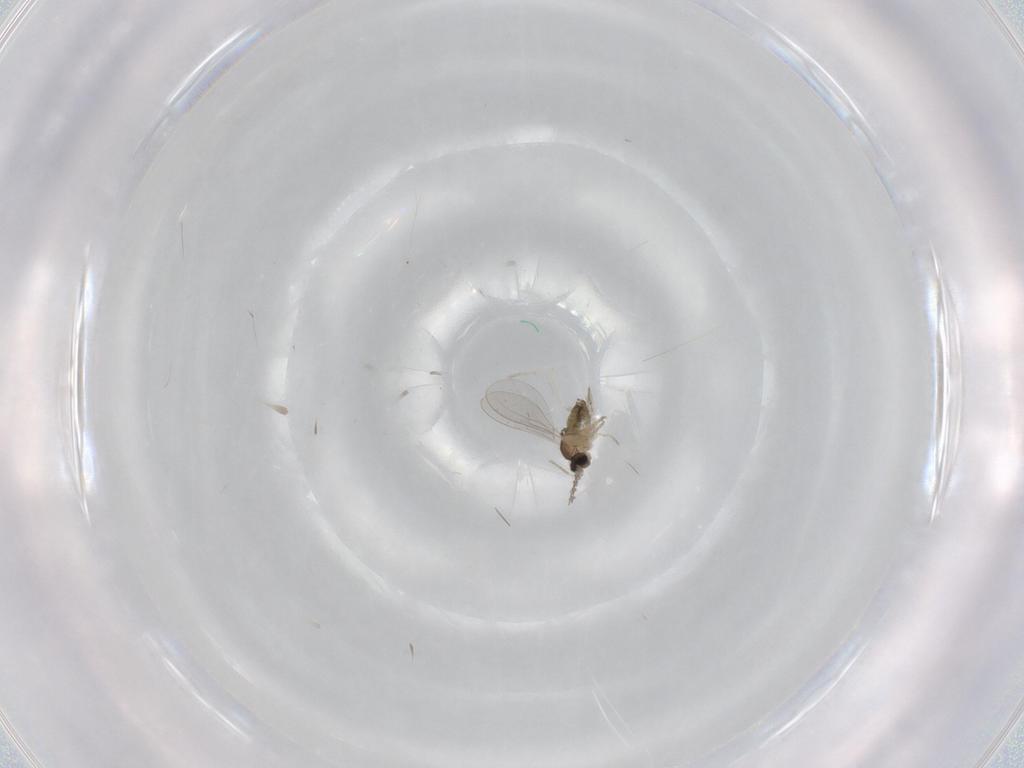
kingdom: Animalia
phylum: Arthropoda
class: Insecta
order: Diptera
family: Cecidomyiidae
